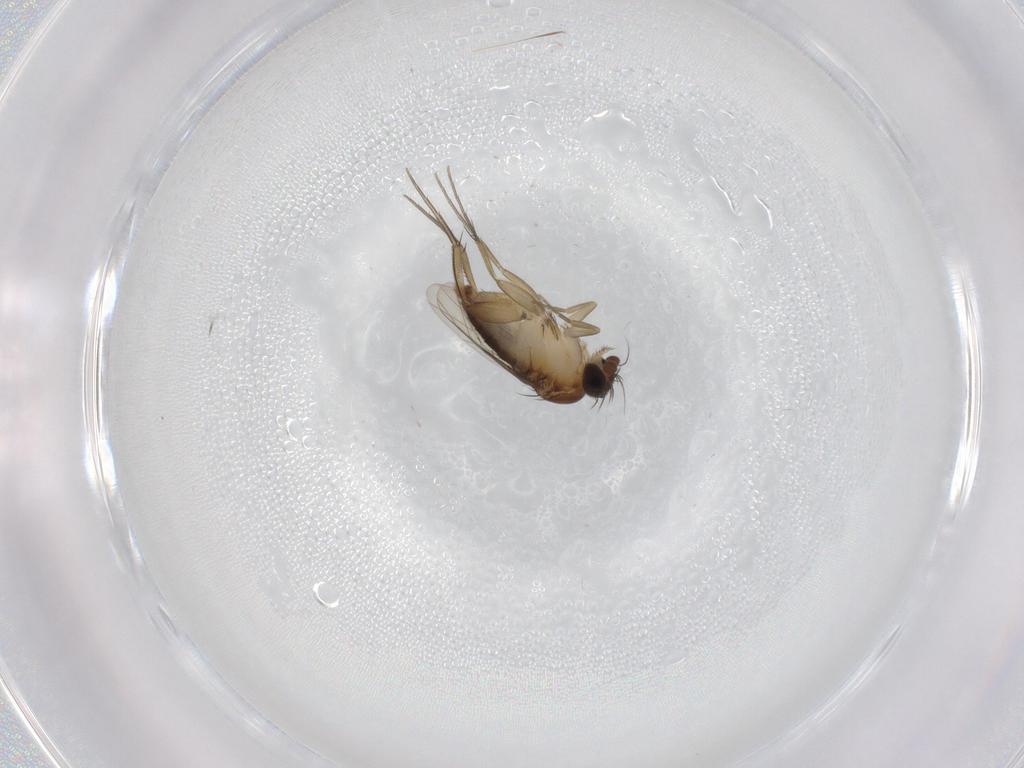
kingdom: Animalia
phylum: Arthropoda
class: Insecta
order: Diptera
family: Phoridae
